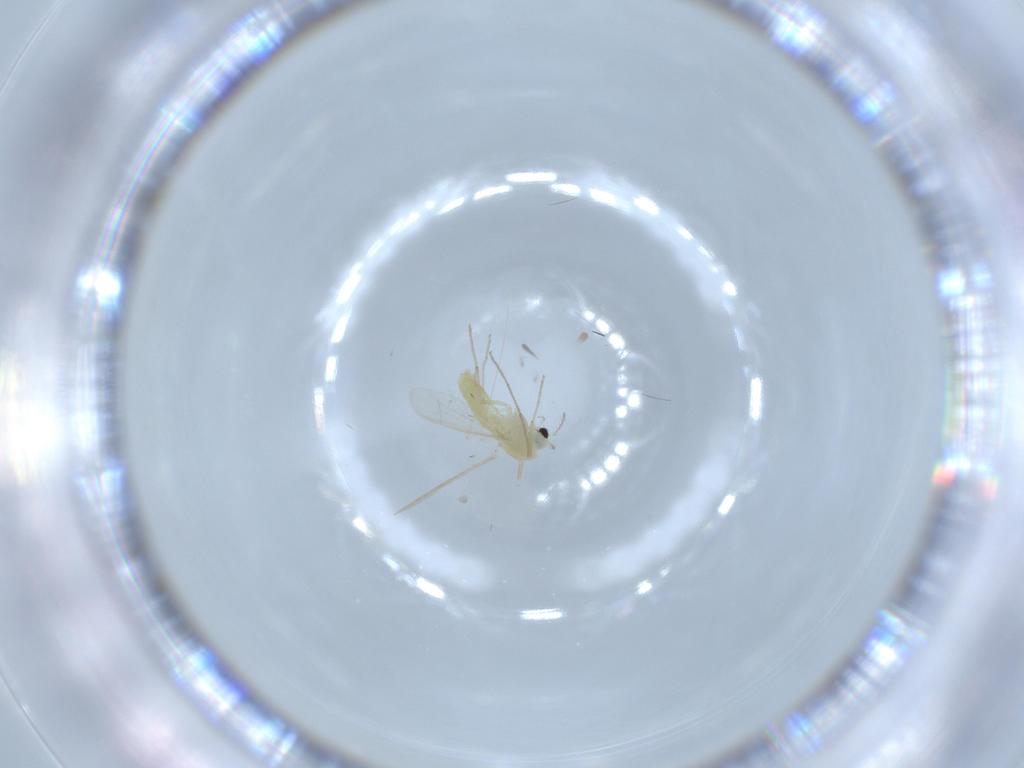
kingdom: Animalia
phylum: Arthropoda
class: Insecta
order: Diptera
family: Chironomidae
